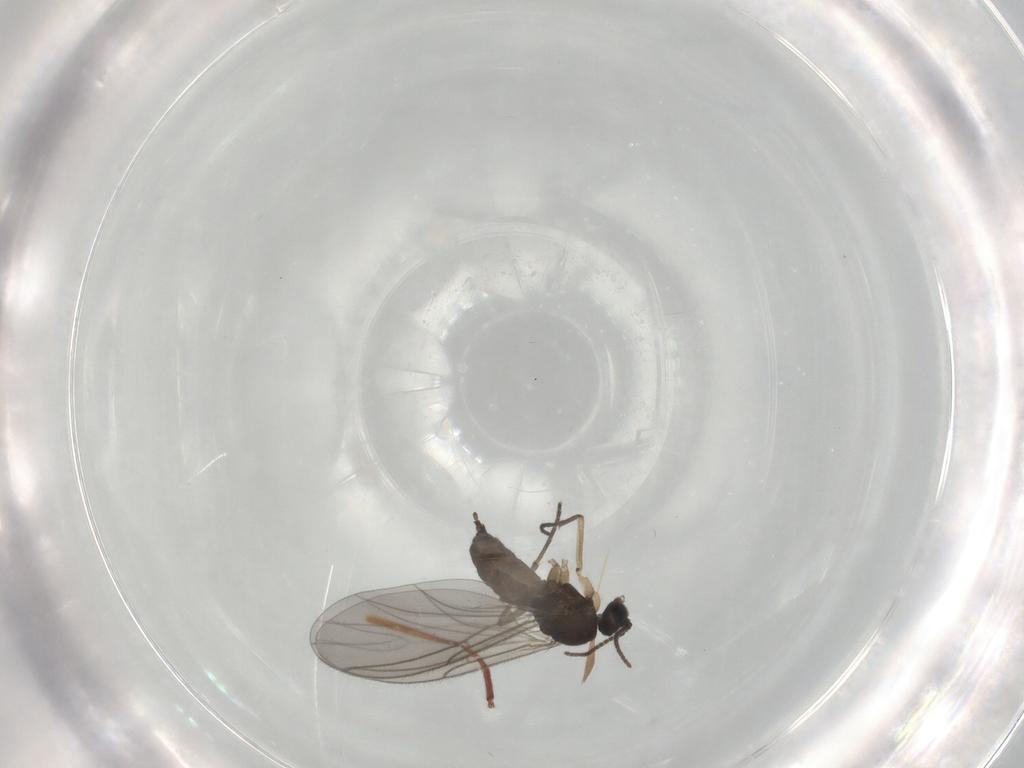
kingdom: Animalia
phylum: Arthropoda
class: Insecta
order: Diptera
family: Sciaridae
